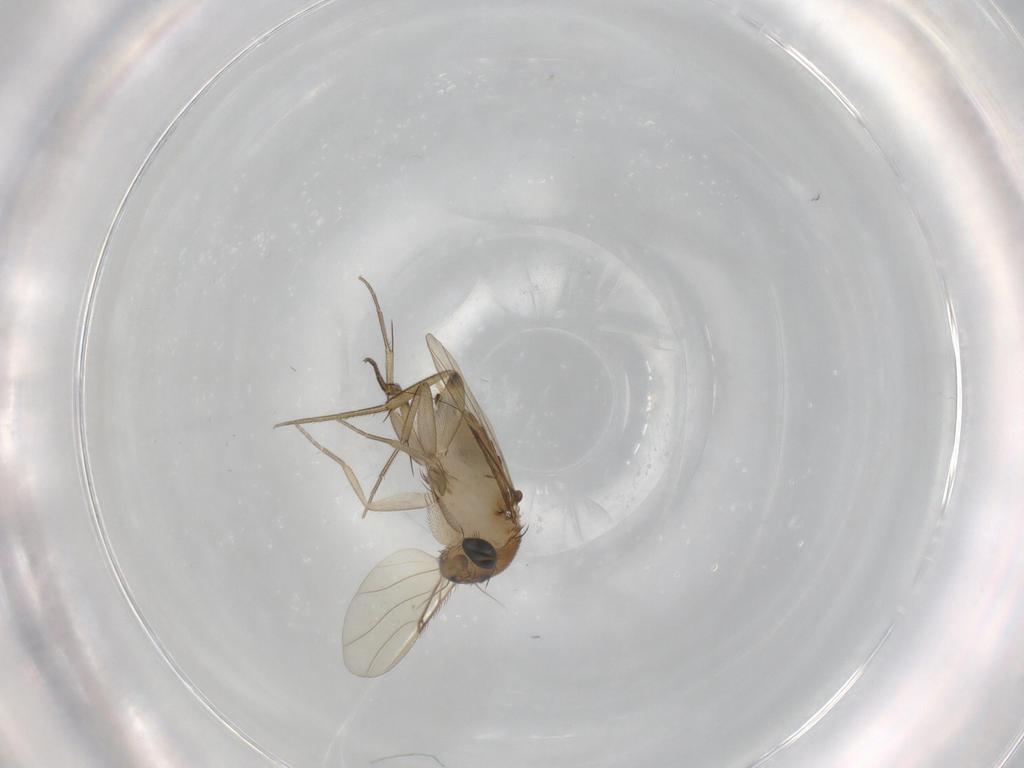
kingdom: Animalia
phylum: Arthropoda
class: Insecta
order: Diptera
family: Phoridae
